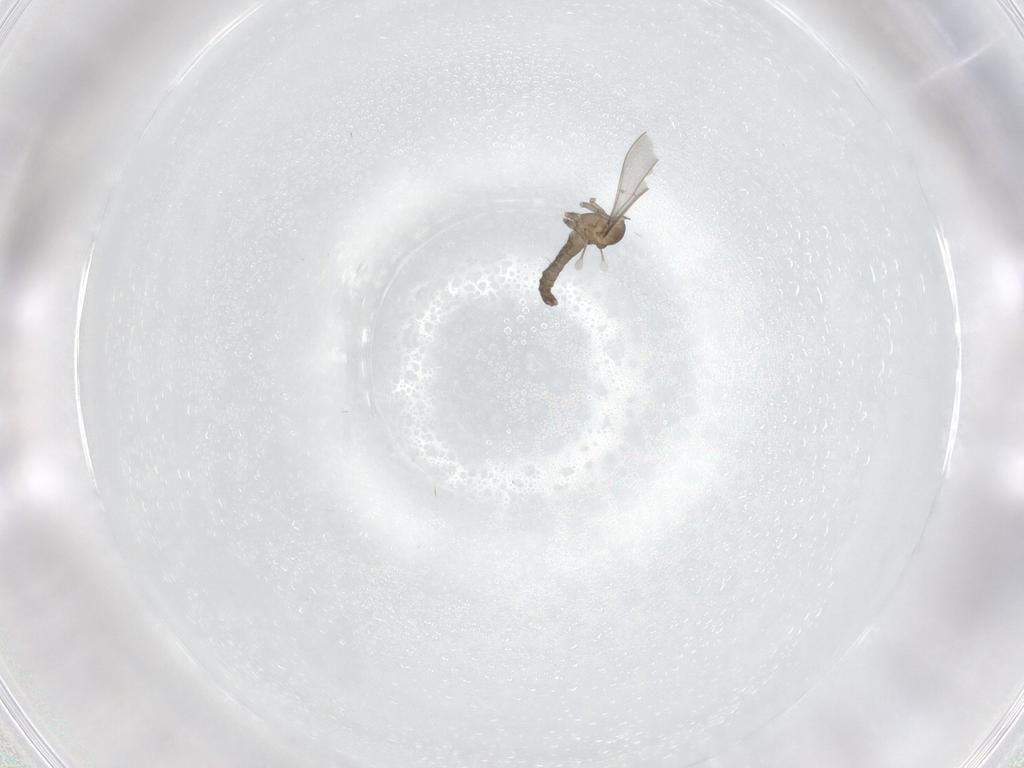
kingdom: Animalia
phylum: Arthropoda
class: Insecta
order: Diptera
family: Cecidomyiidae
